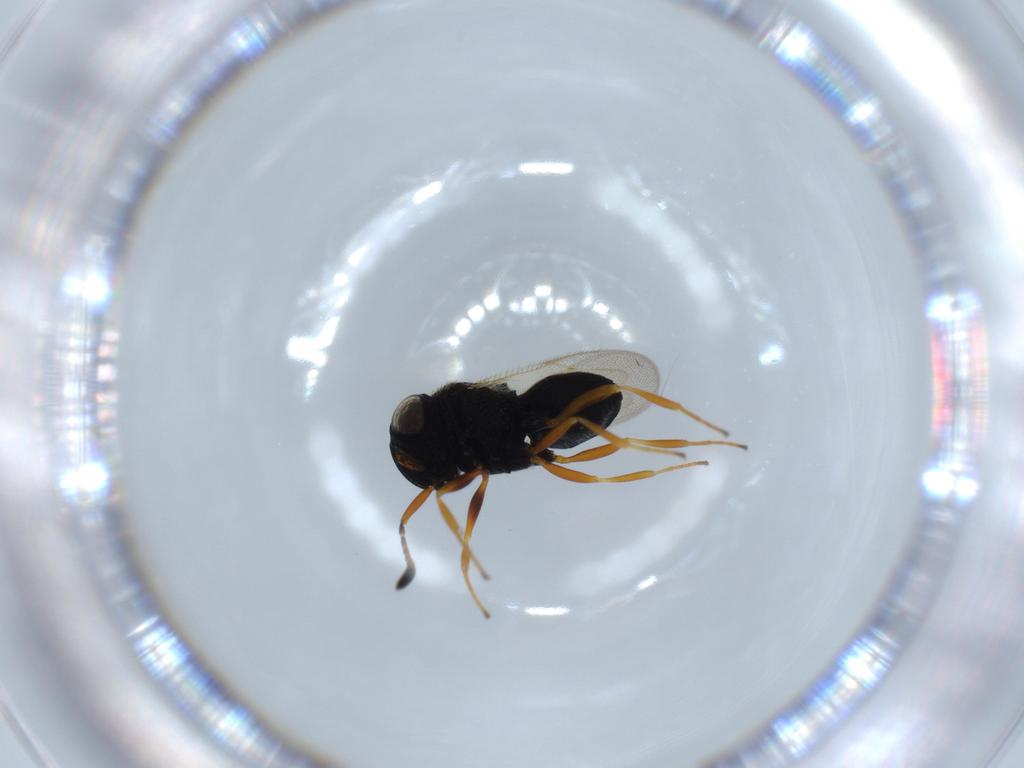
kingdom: Animalia
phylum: Arthropoda
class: Insecta
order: Hymenoptera
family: Scelionidae
